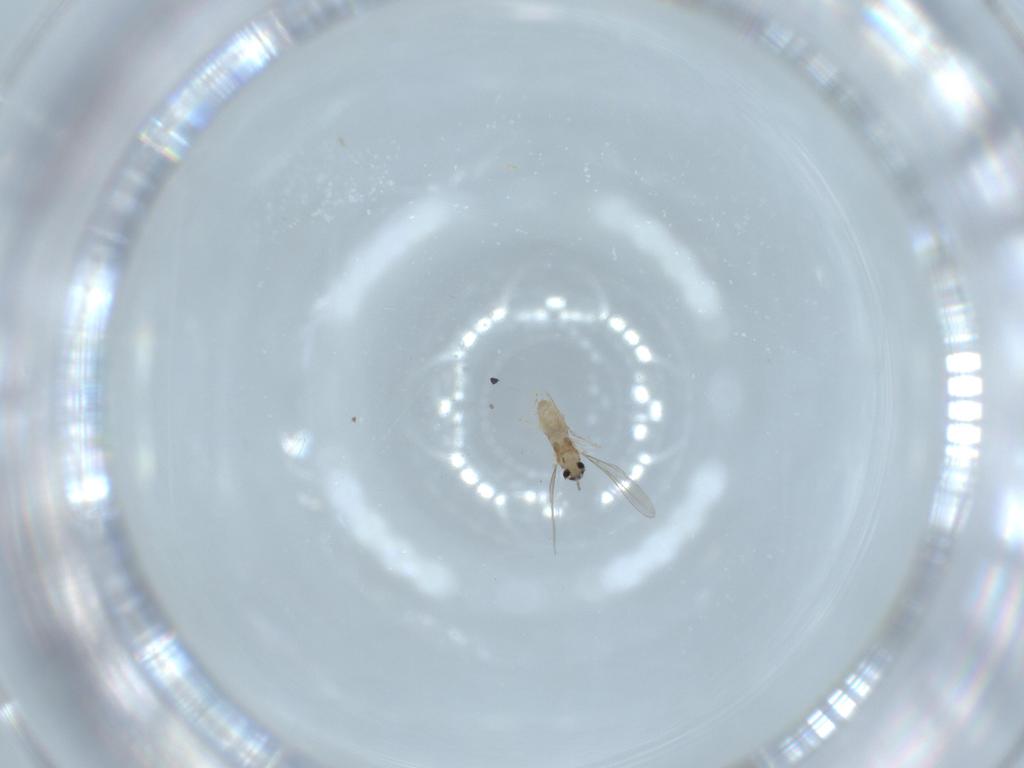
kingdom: Animalia
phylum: Arthropoda
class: Insecta
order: Diptera
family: Cecidomyiidae
